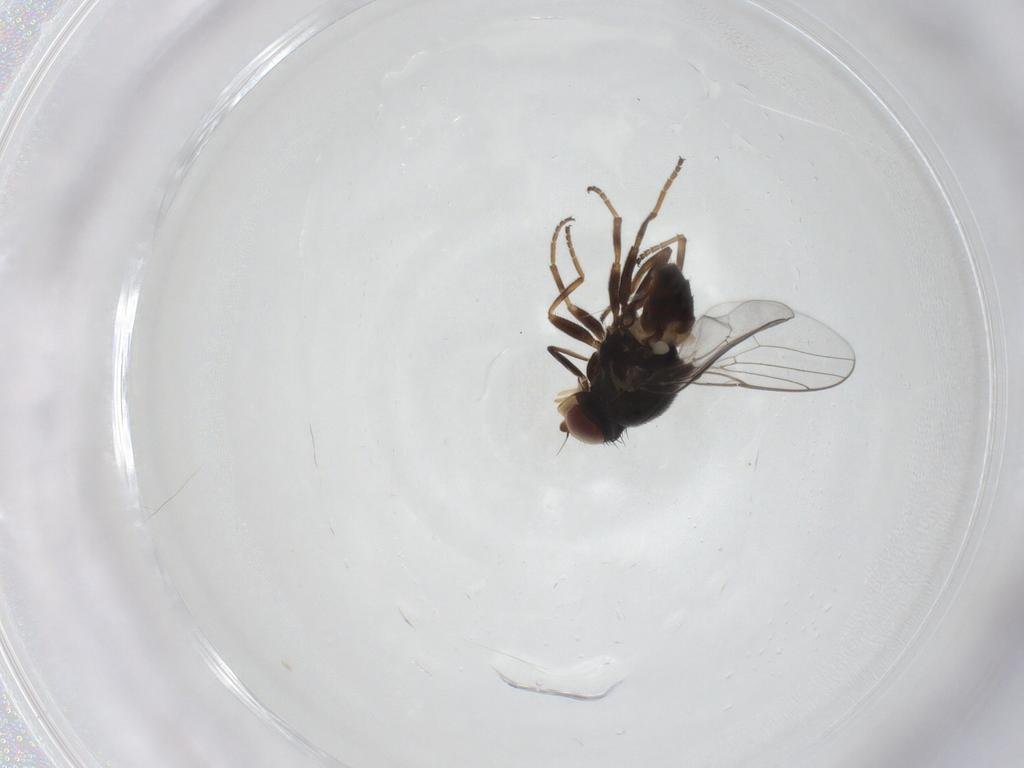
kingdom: Animalia
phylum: Arthropoda
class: Insecta
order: Diptera
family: Chloropidae
